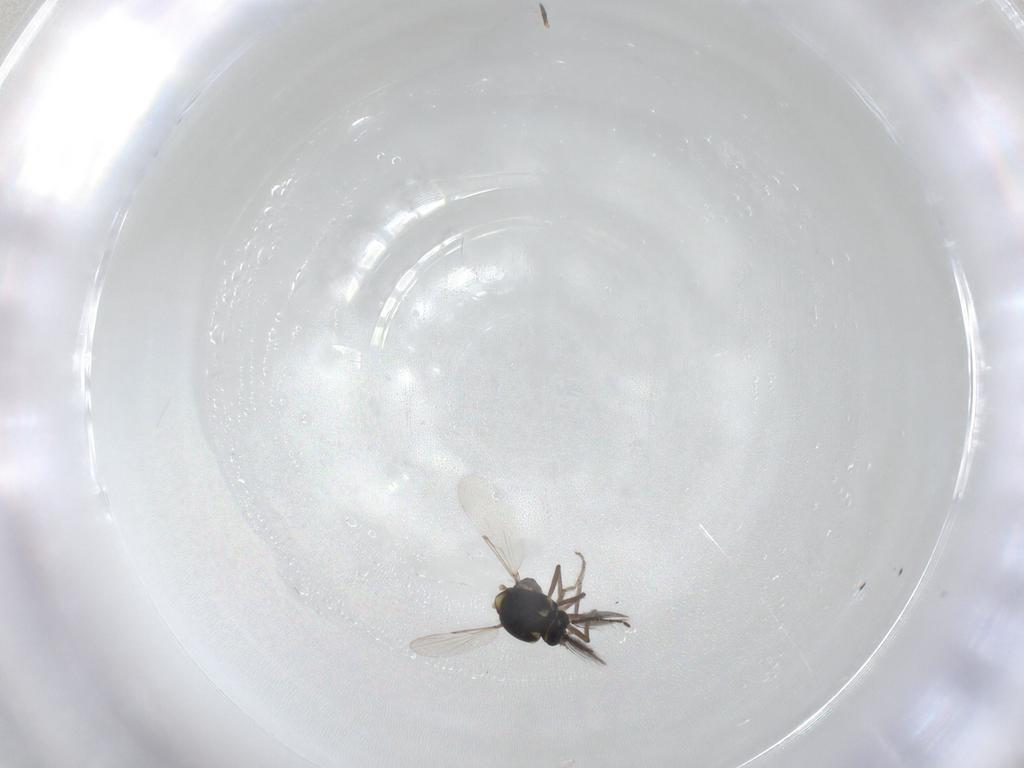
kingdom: Animalia
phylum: Arthropoda
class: Insecta
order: Diptera
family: Ceratopogonidae
